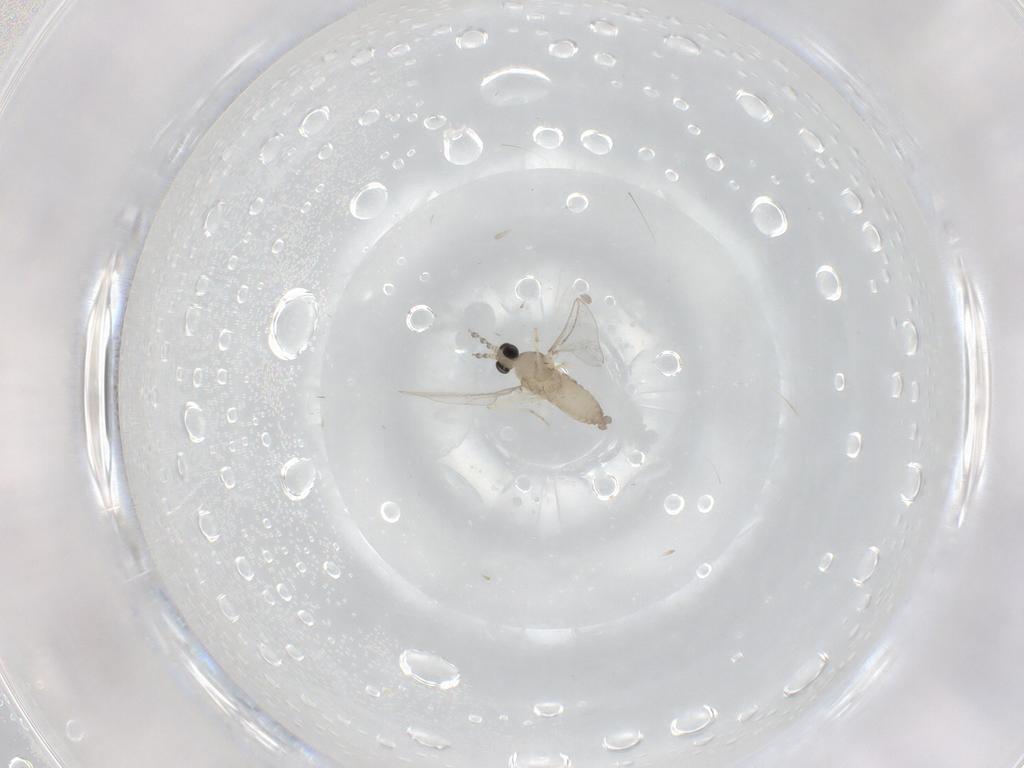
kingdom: Animalia
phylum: Arthropoda
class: Insecta
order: Diptera
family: Cecidomyiidae
